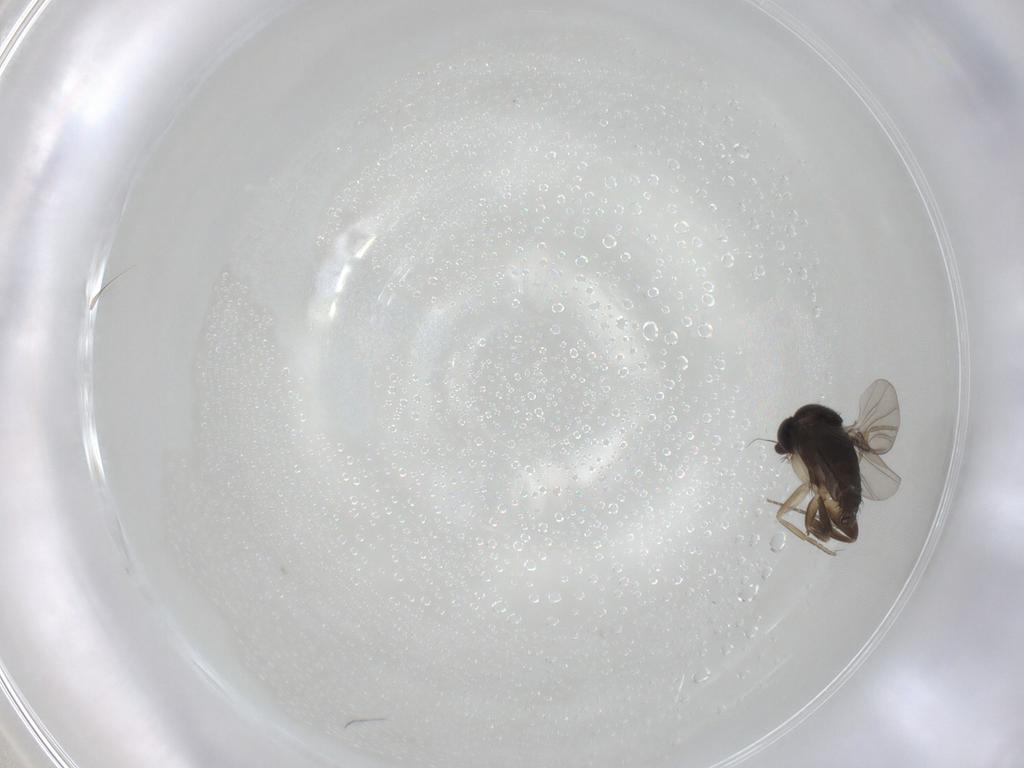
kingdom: Animalia
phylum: Arthropoda
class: Insecta
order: Diptera
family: Phoridae
